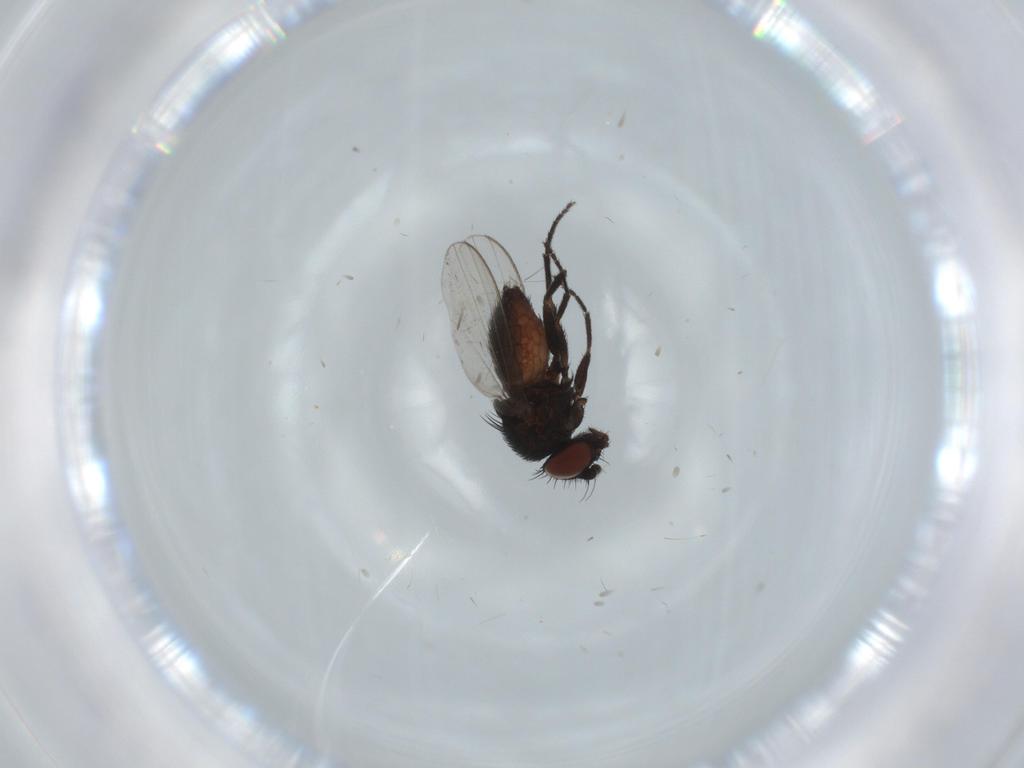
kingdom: Animalia
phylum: Arthropoda
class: Insecta
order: Diptera
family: Milichiidae
